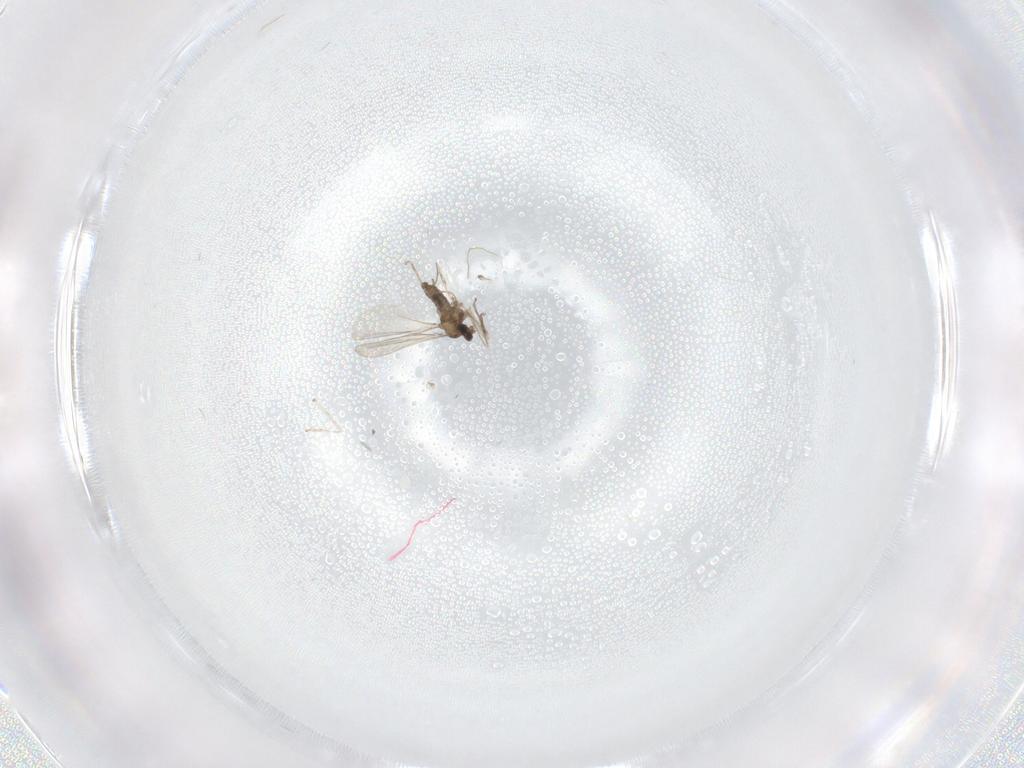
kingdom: Animalia
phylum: Arthropoda
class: Insecta
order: Diptera
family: Cecidomyiidae
